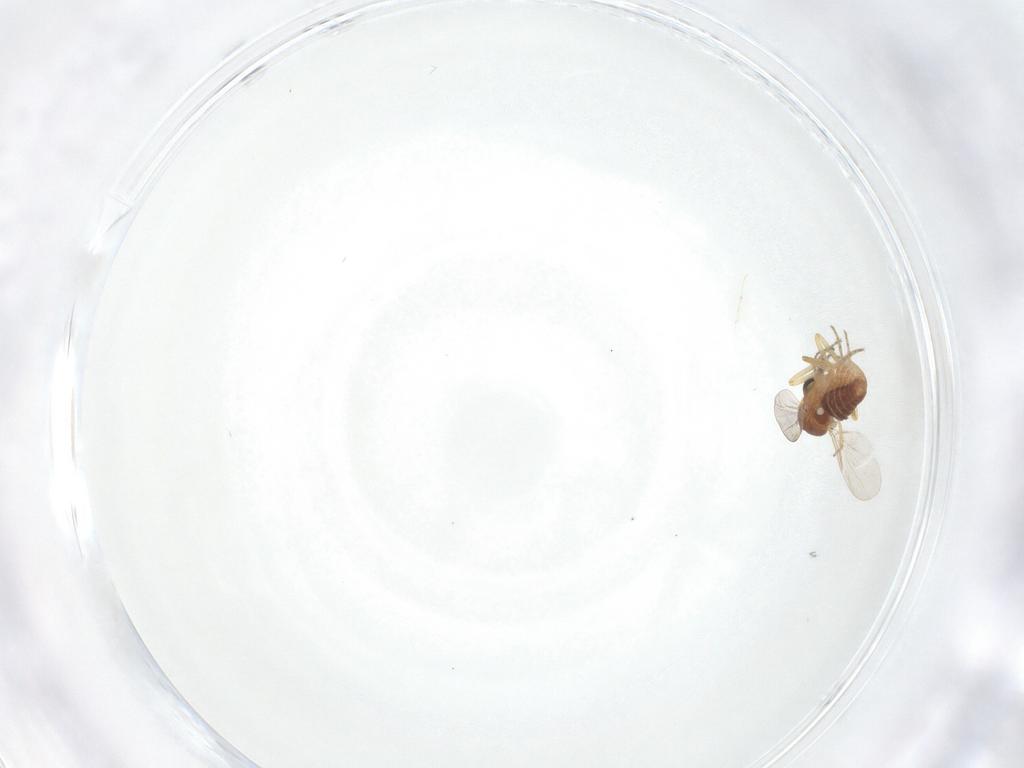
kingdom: Animalia
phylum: Arthropoda
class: Insecta
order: Diptera
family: Ceratopogonidae
